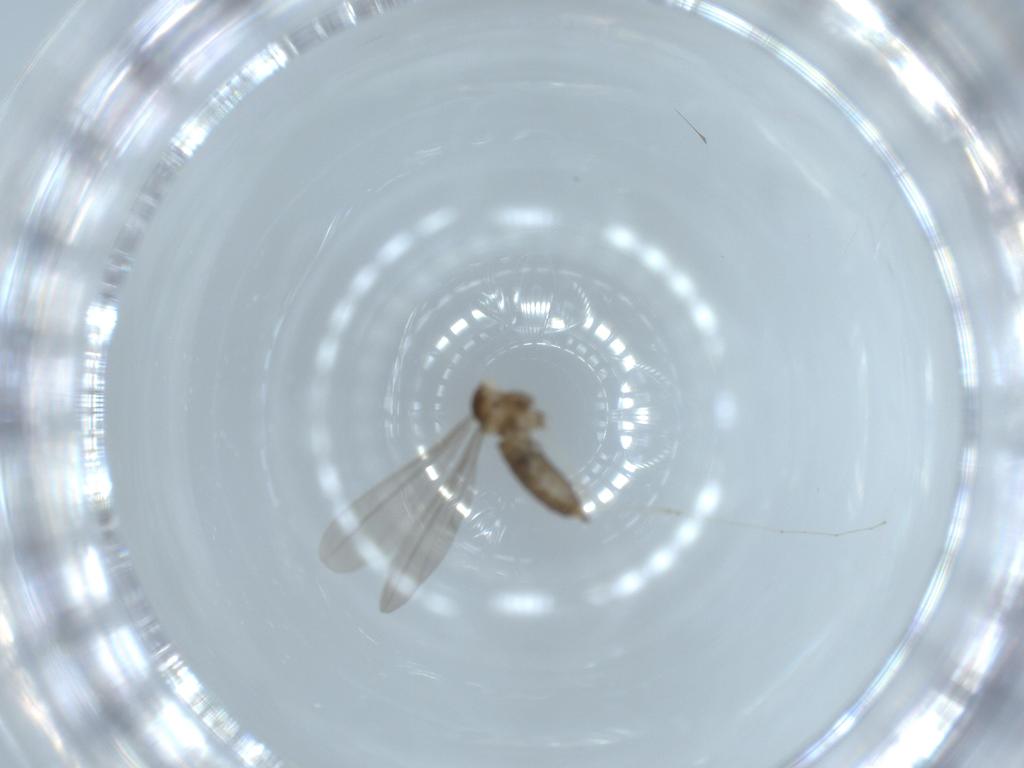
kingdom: Animalia
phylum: Arthropoda
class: Insecta
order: Diptera
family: Cecidomyiidae
